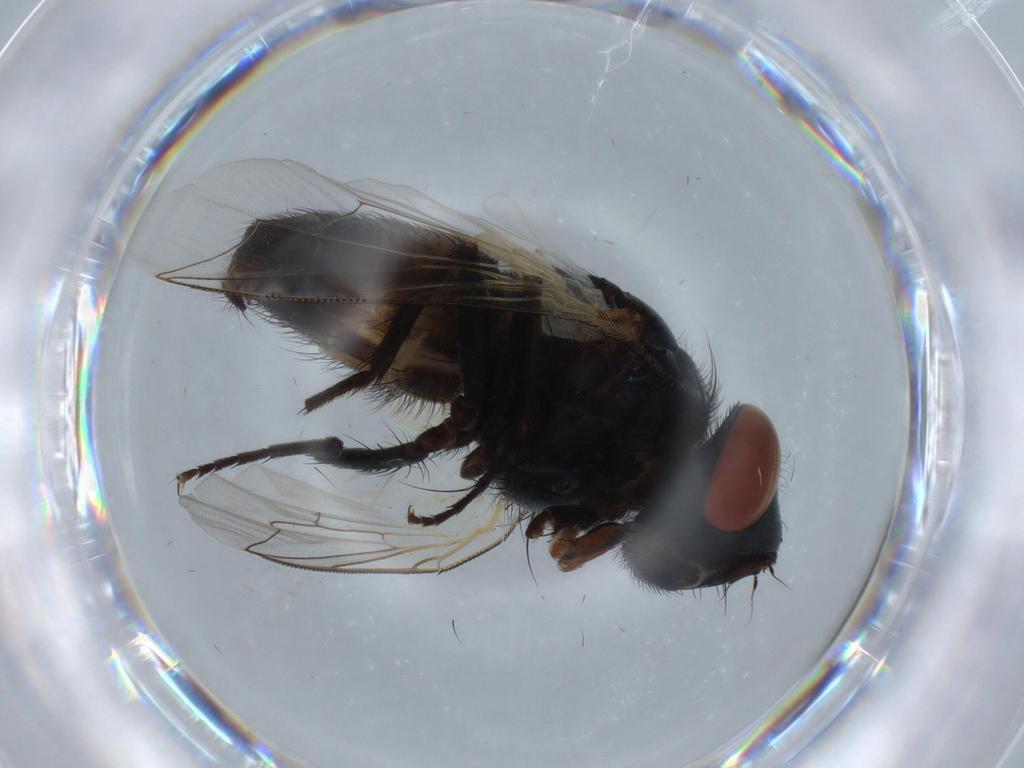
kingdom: Animalia
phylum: Arthropoda
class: Insecta
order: Diptera
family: Sarcophagidae
